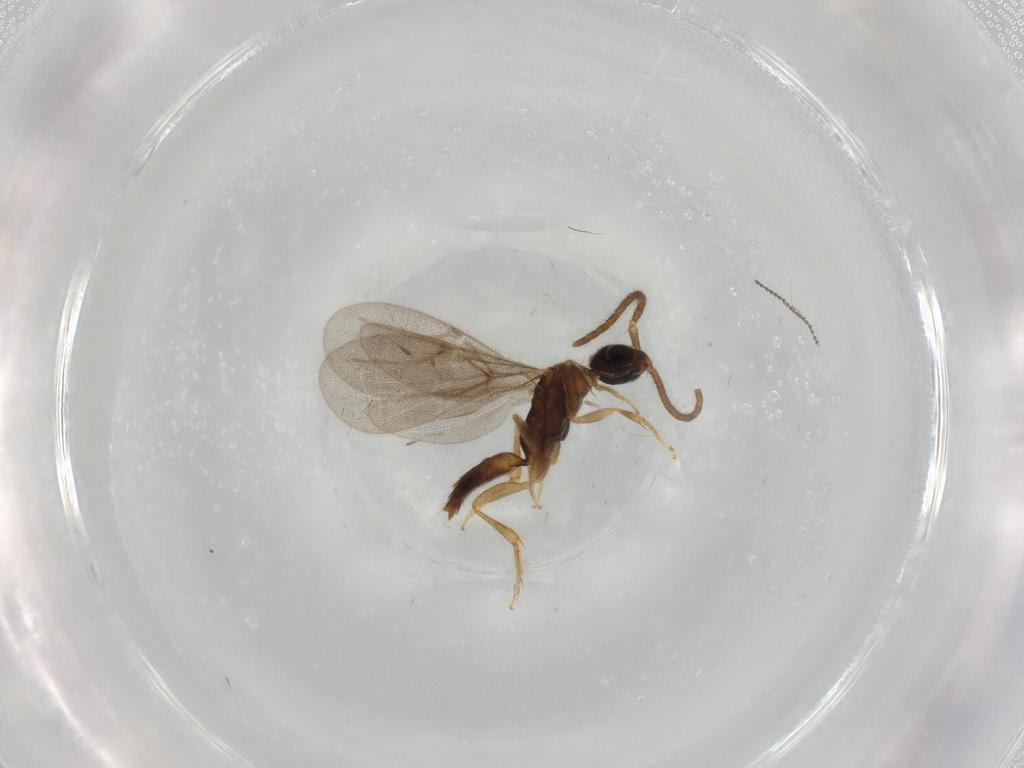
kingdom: Animalia
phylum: Arthropoda
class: Insecta
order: Hymenoptera
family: Bethylidae
